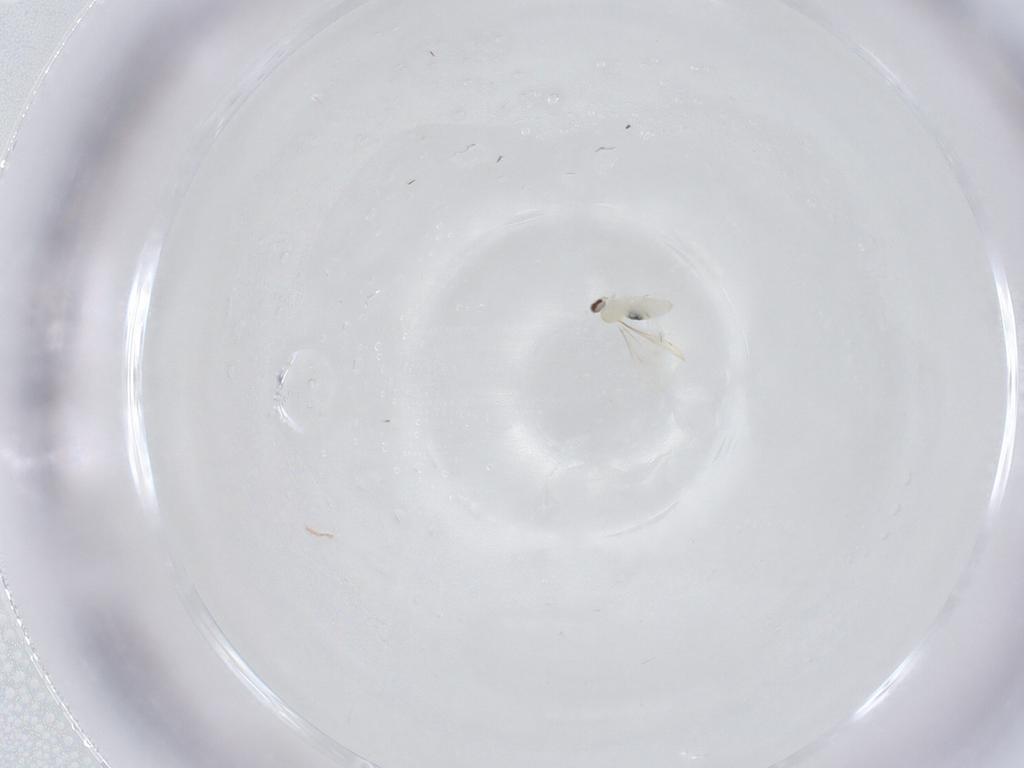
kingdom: Animalia
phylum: Arthropoda
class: Insecta
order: Diptera
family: Cecidomyiidae
